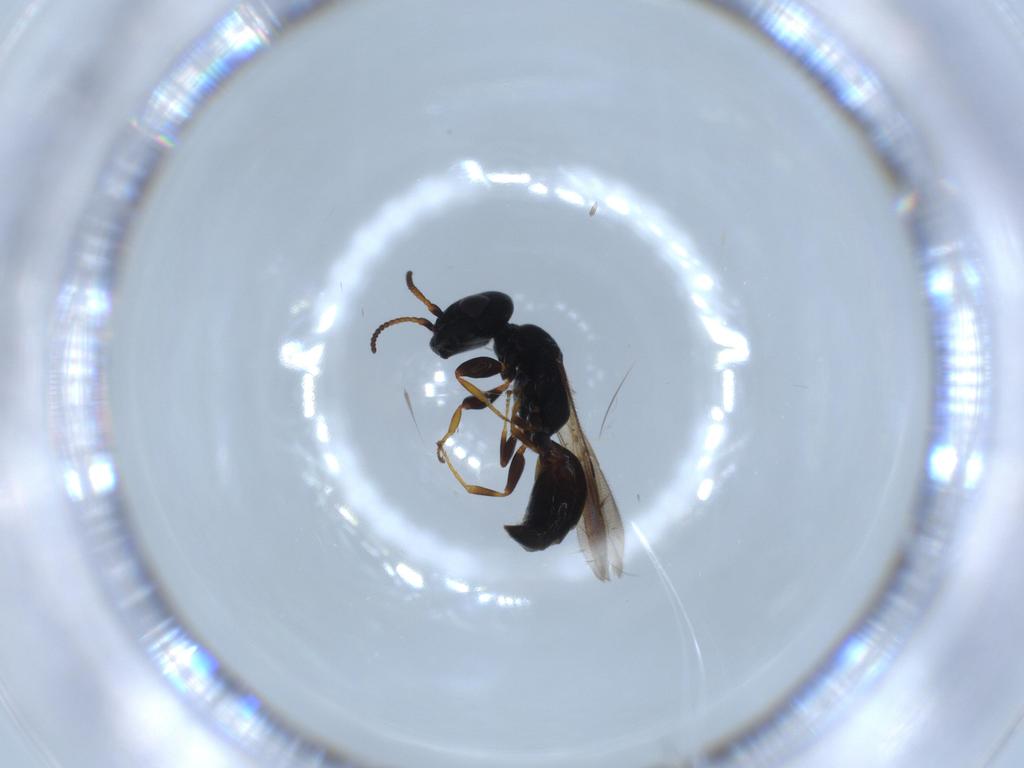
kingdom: Animalia
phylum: Arthropoda
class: Insecta
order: Hymenoptera
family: Bethylidae
